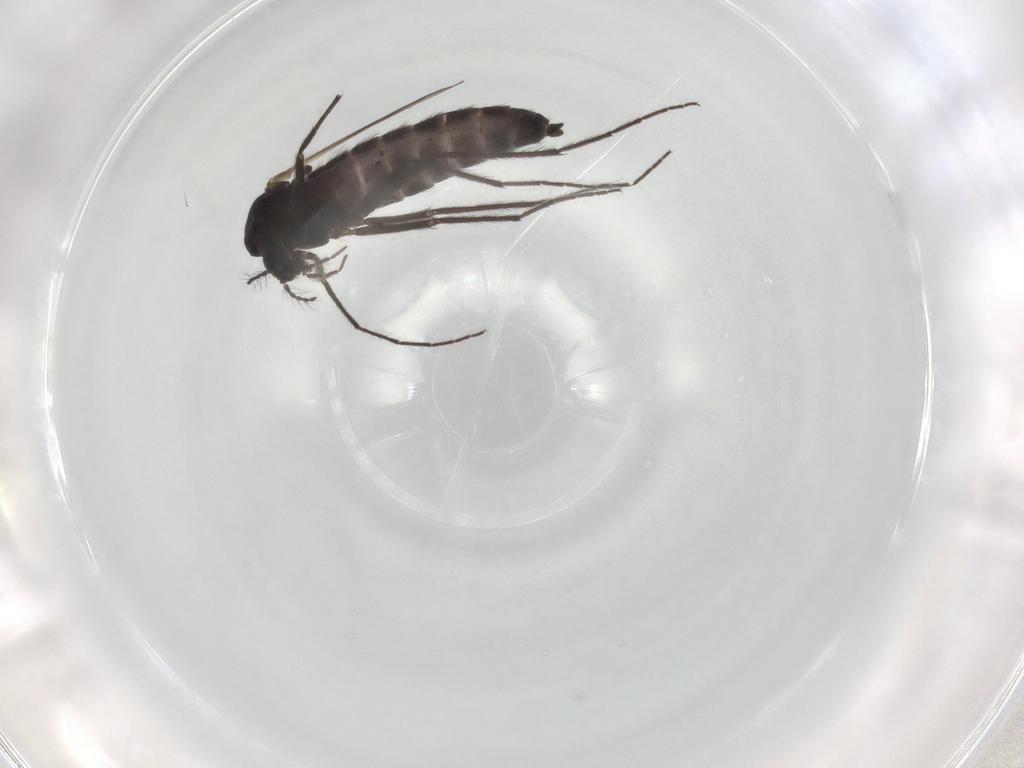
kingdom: Animalia
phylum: Arthropoda
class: Insecta
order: Diptera
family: Chironomidae
